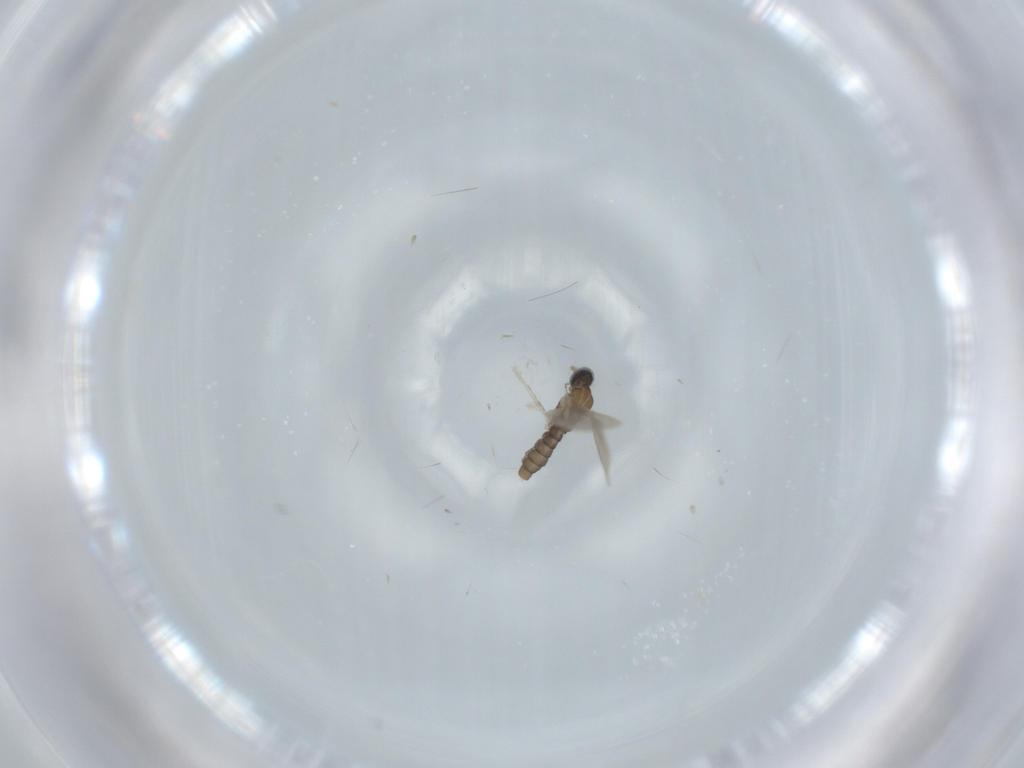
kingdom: Animalia
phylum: Arthropoda
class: Insecta
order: Diptera
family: Cecidomyiidae
